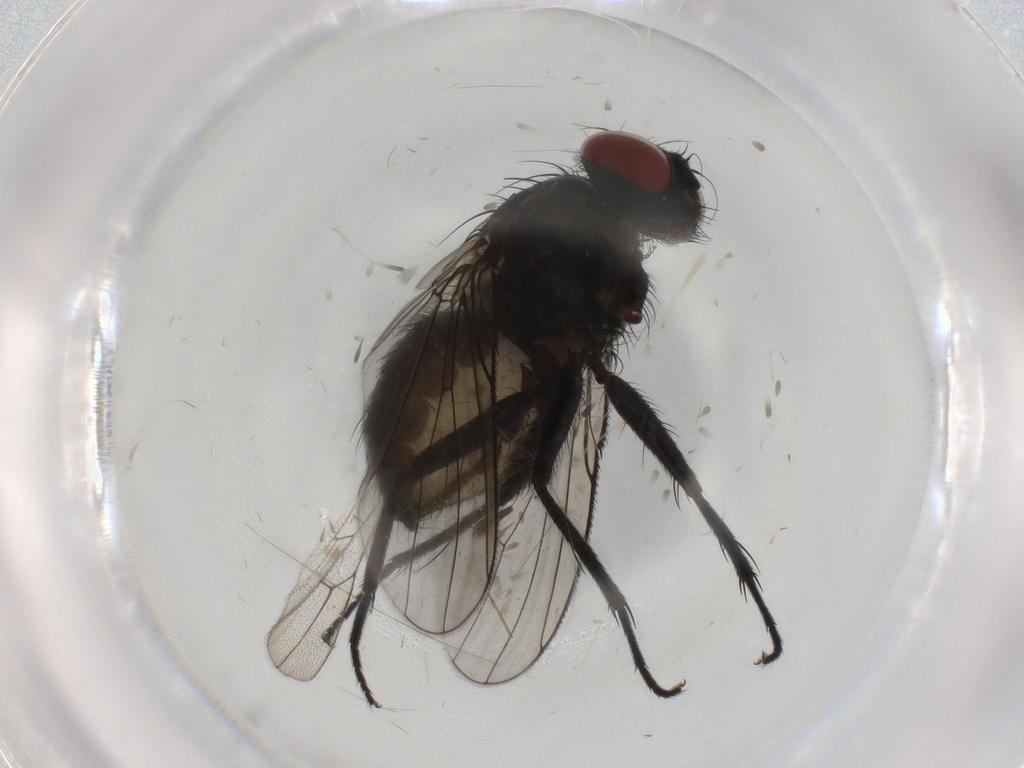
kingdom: Animalia
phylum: Arthropoda
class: Insecta
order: Diptera
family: Muscidae
